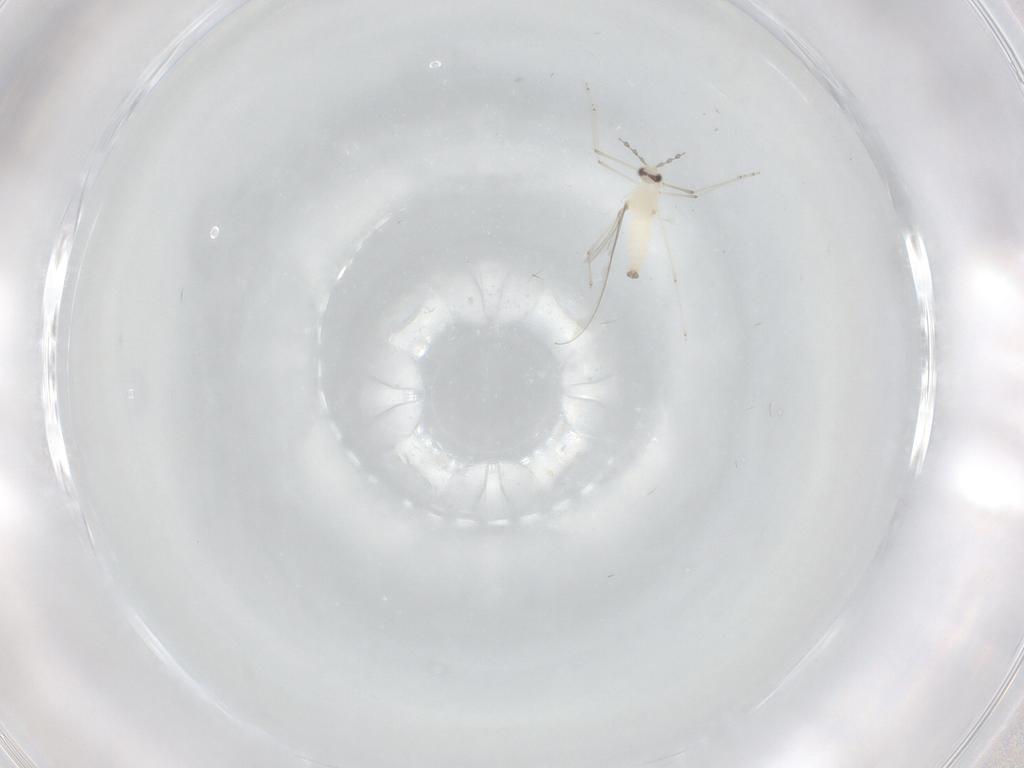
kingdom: Animalia
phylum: Arthropoda
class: Insecta
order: Diptera
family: Cecidomyiidae
